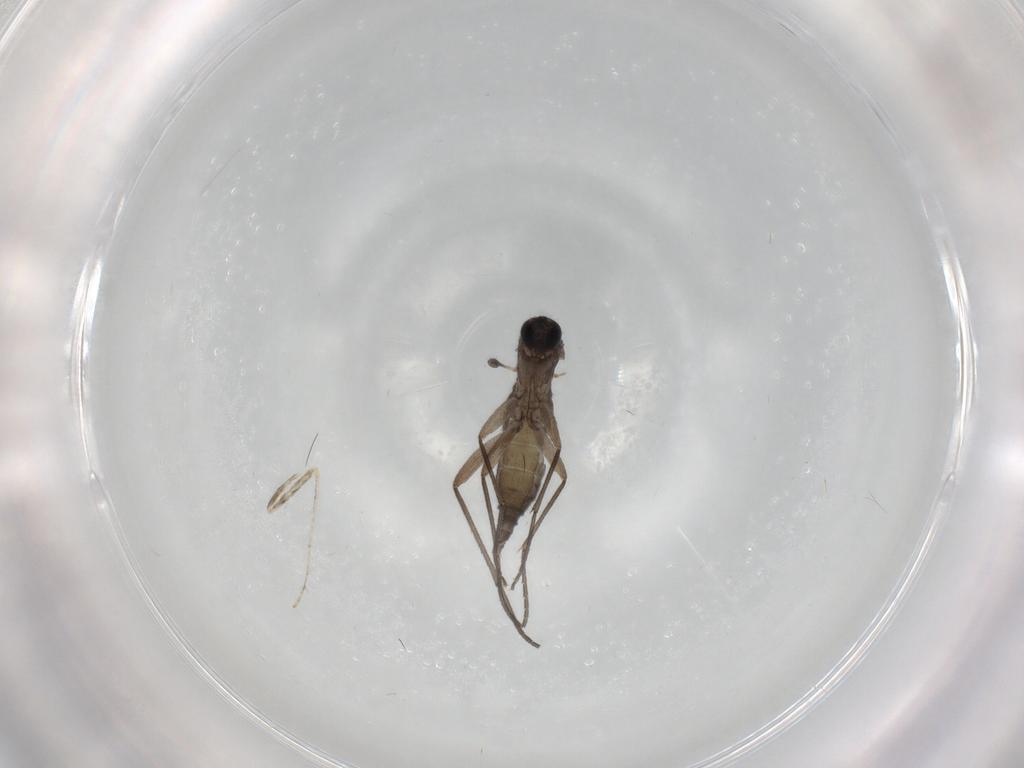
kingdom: Animalia
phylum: Arthropoda
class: Insecta
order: Diptera
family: Sciaridae
